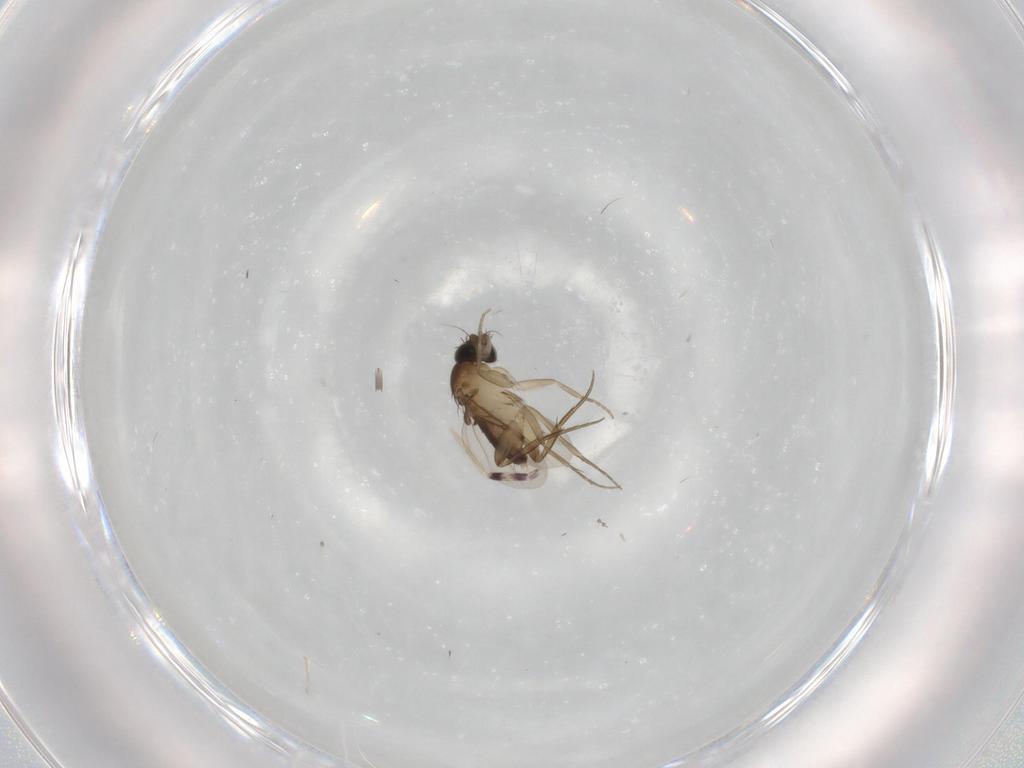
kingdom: Animalia
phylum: Arthropoda
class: Insecta
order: Diptera
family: Phoridae
